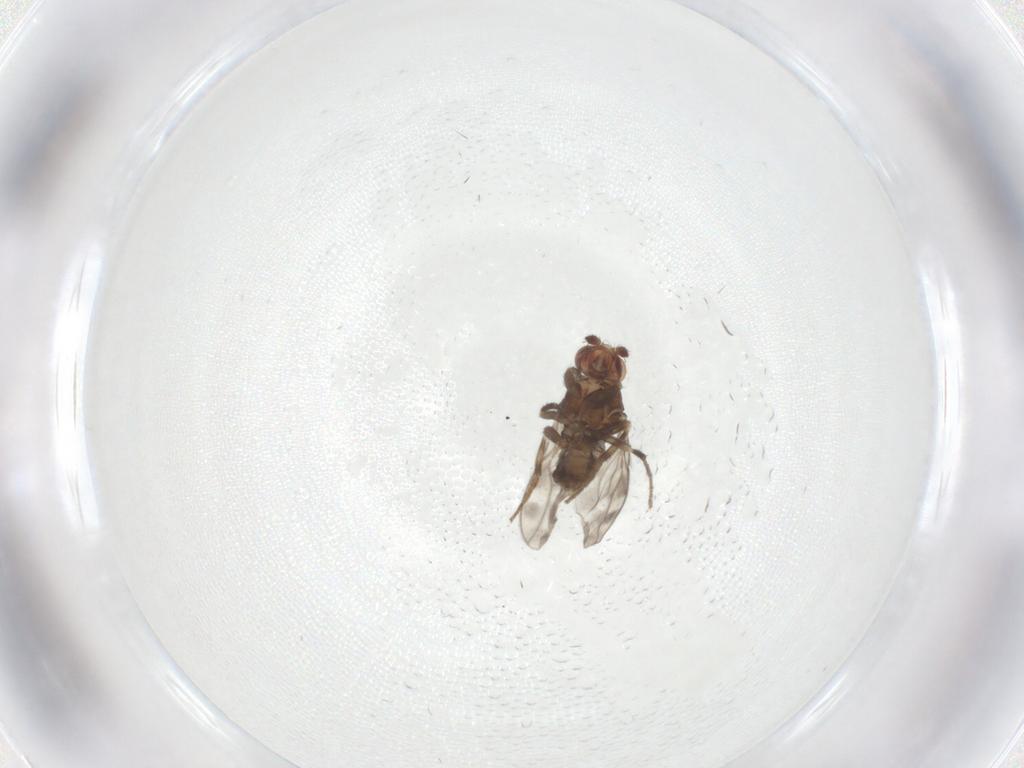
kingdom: Animalia
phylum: Arthropoda
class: Insecta
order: Diptera
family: Sphaeroceridae
